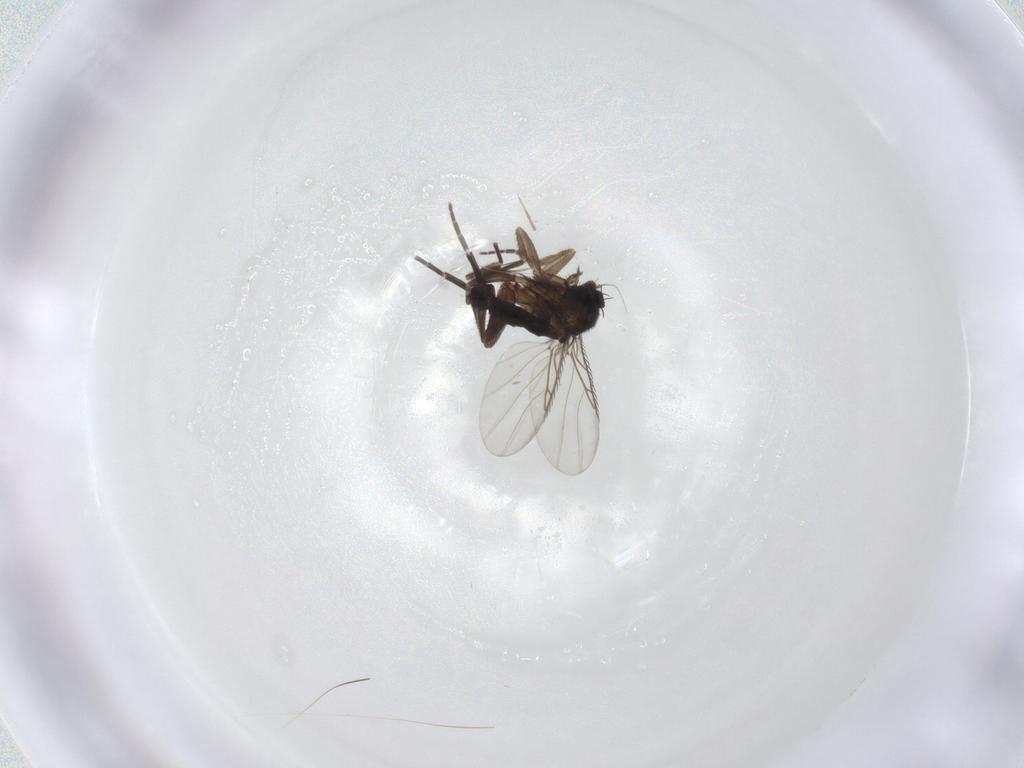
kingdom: Animalia
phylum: Arthropoda
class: Insecta
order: Diptera
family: Phoridae
